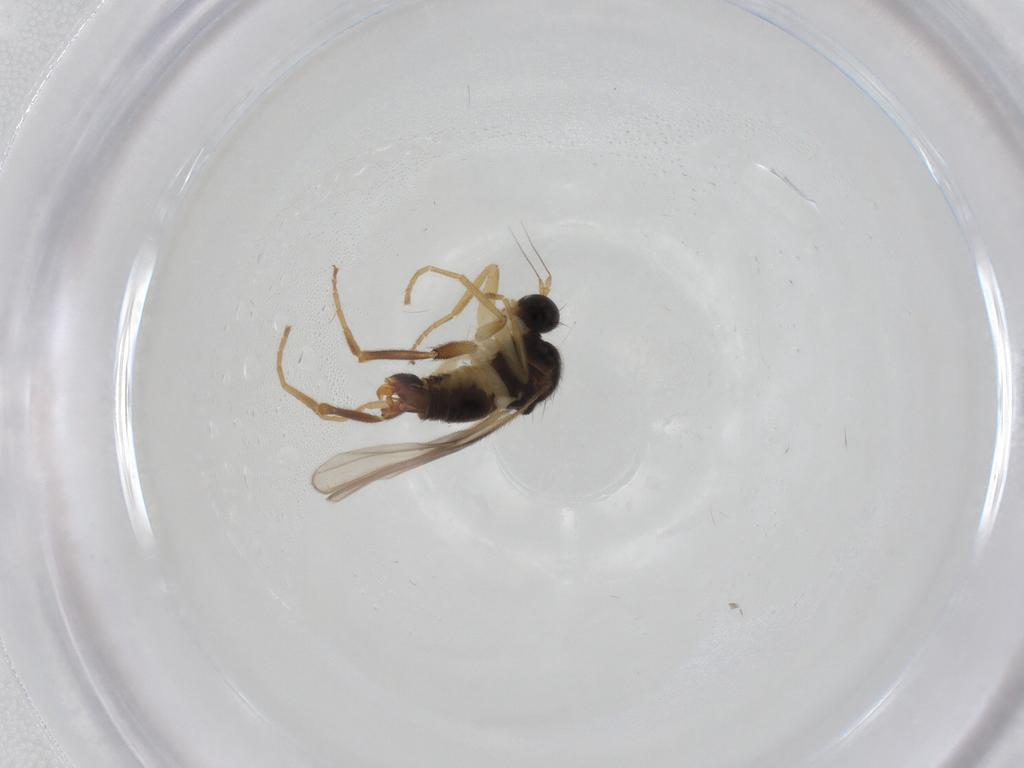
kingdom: Animalia
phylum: Arthropoda
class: Insecta
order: Diptera
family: Hybotidae
